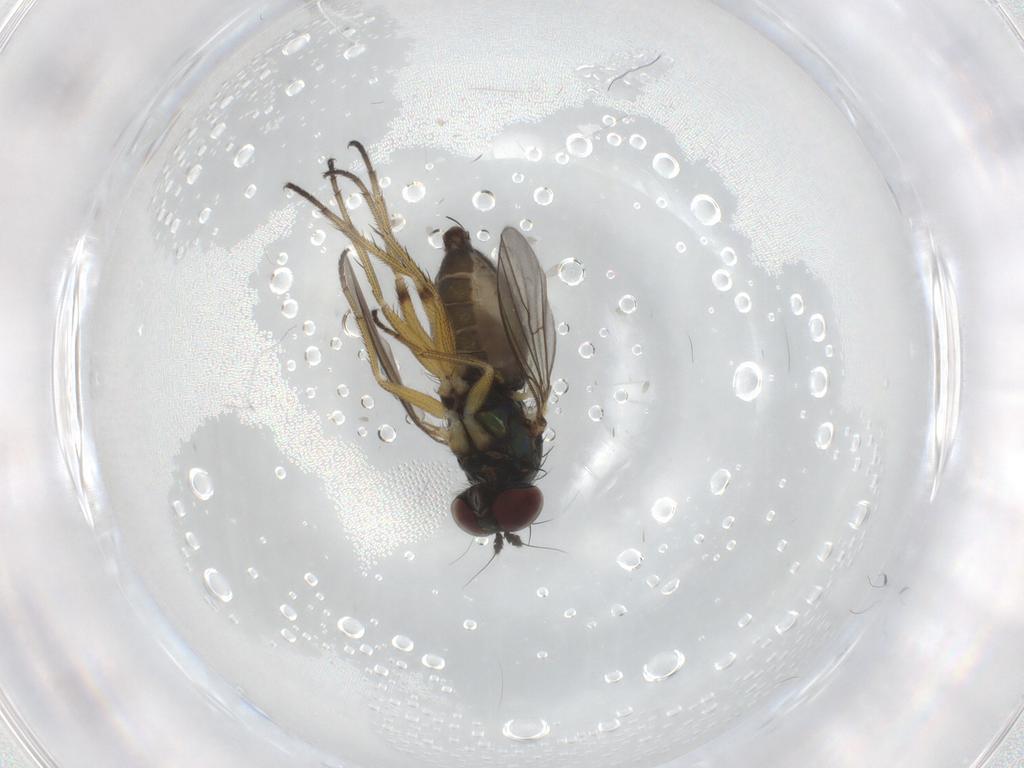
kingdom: Animalia
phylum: Arthropoda
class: Insecta
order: Diptera
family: Dolichopodidae
